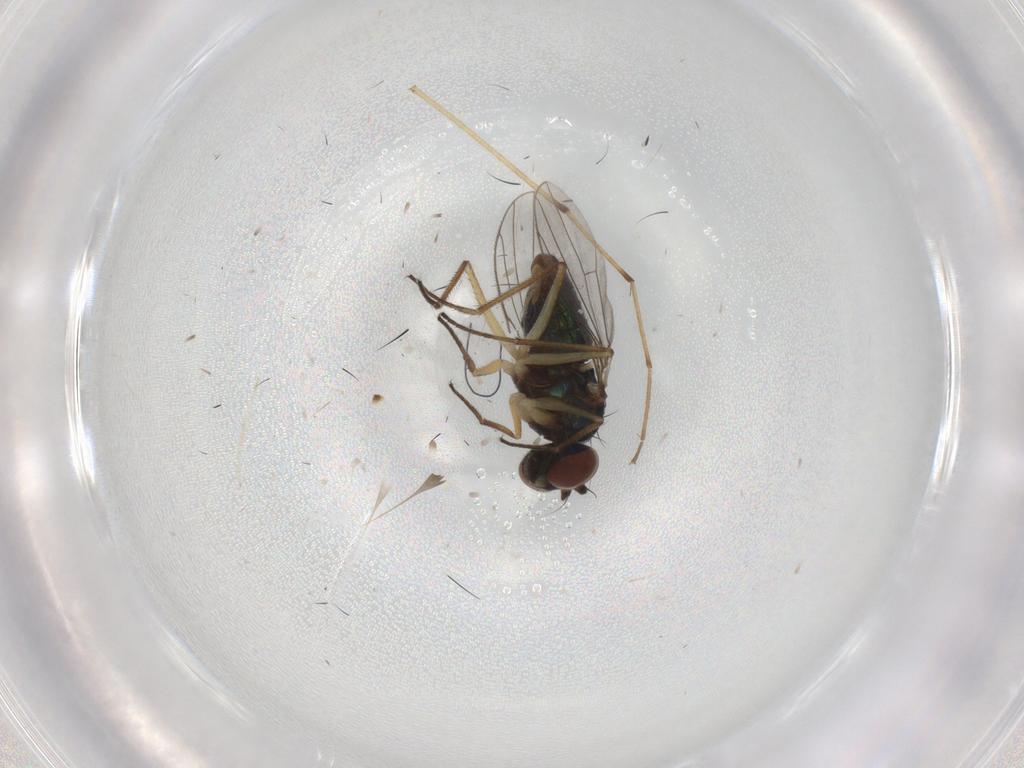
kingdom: Animalia
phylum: Arthropoda
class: Insecta
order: Diptera
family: Dolichopodidae
